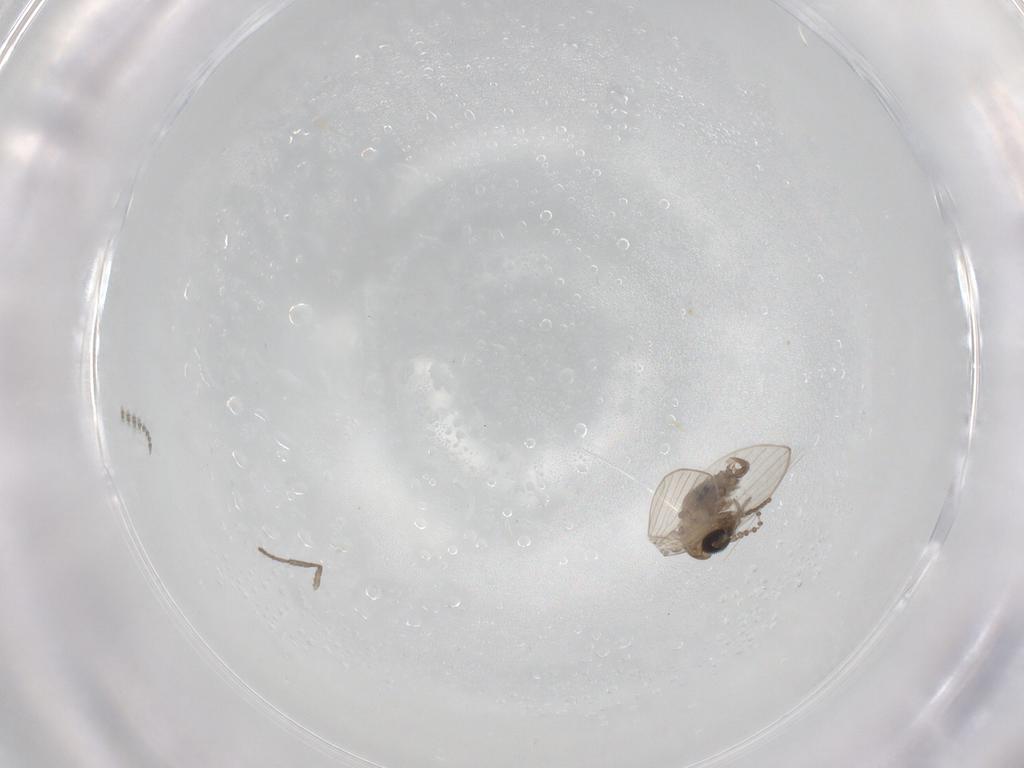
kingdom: Animalia
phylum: Arthropoda
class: Insecta
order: Diptera
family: Psychodidae
